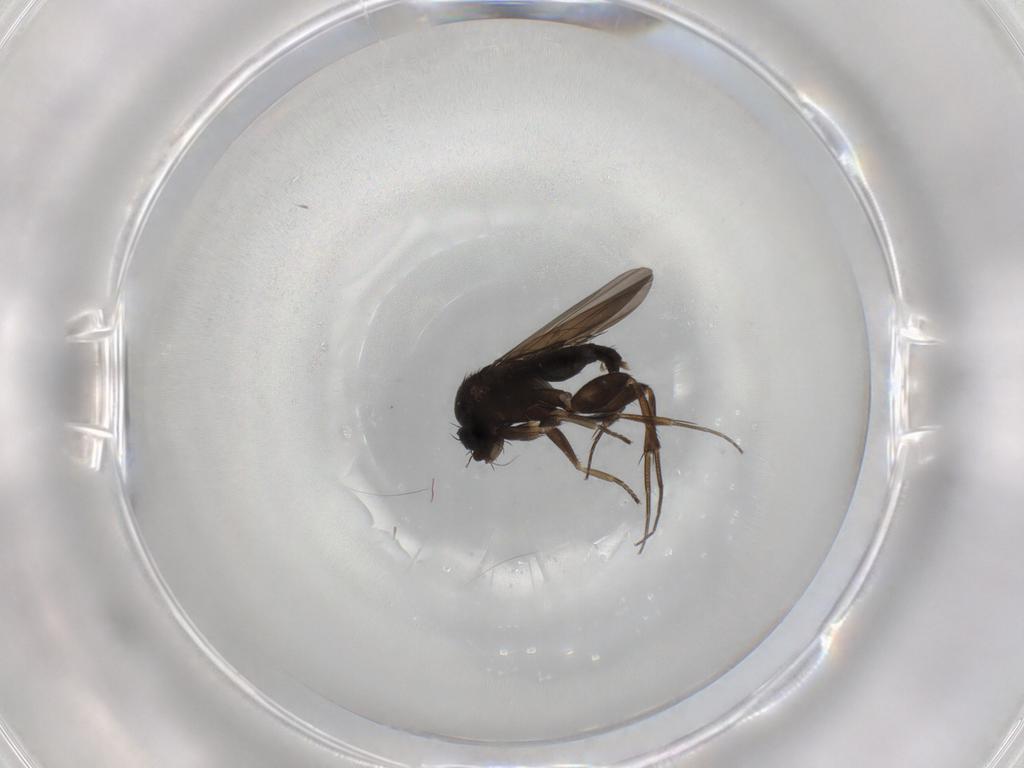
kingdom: Animalia
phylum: Arthropoda
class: Insecta
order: Diptera
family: Phoridae
